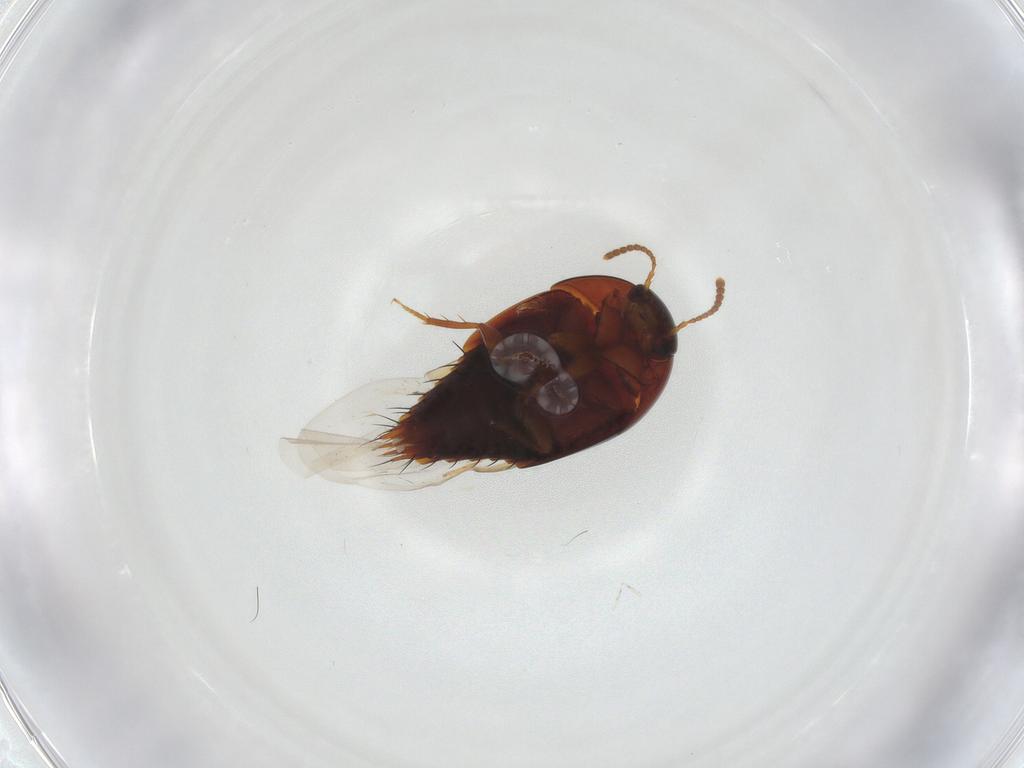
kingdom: Animalia
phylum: Arthropoda
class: Insecta
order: Coleoptera
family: Staphylinidae
